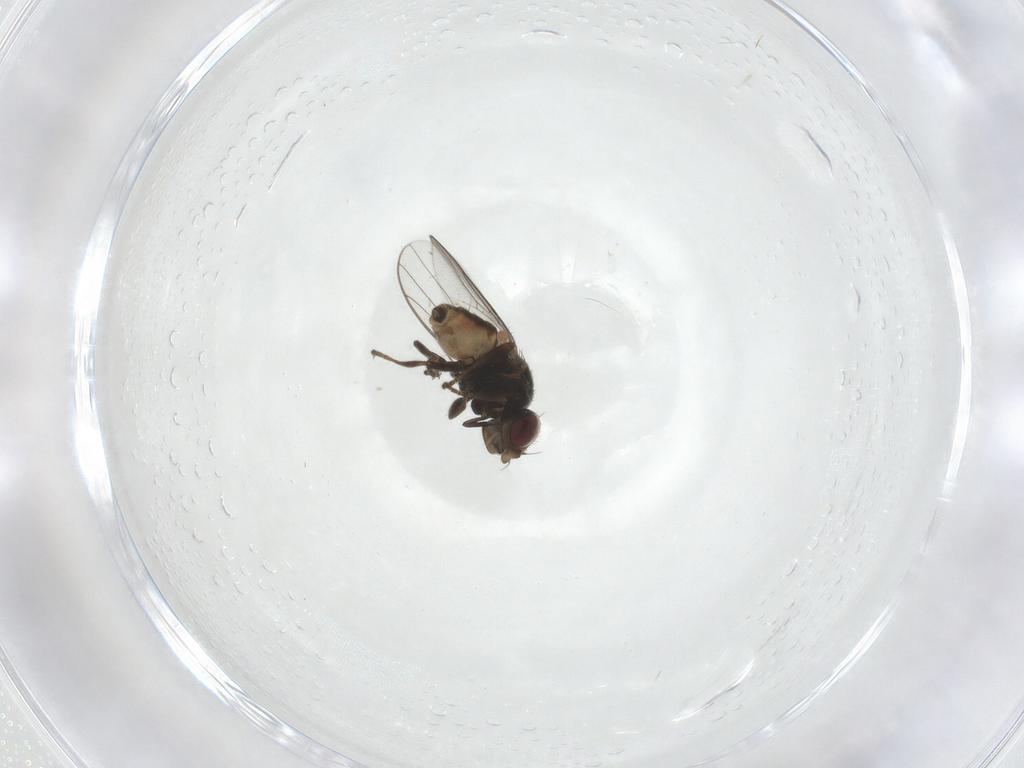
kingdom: Animalia
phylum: Arthropoda
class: Insecta
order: Diptera
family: Chloropidae
